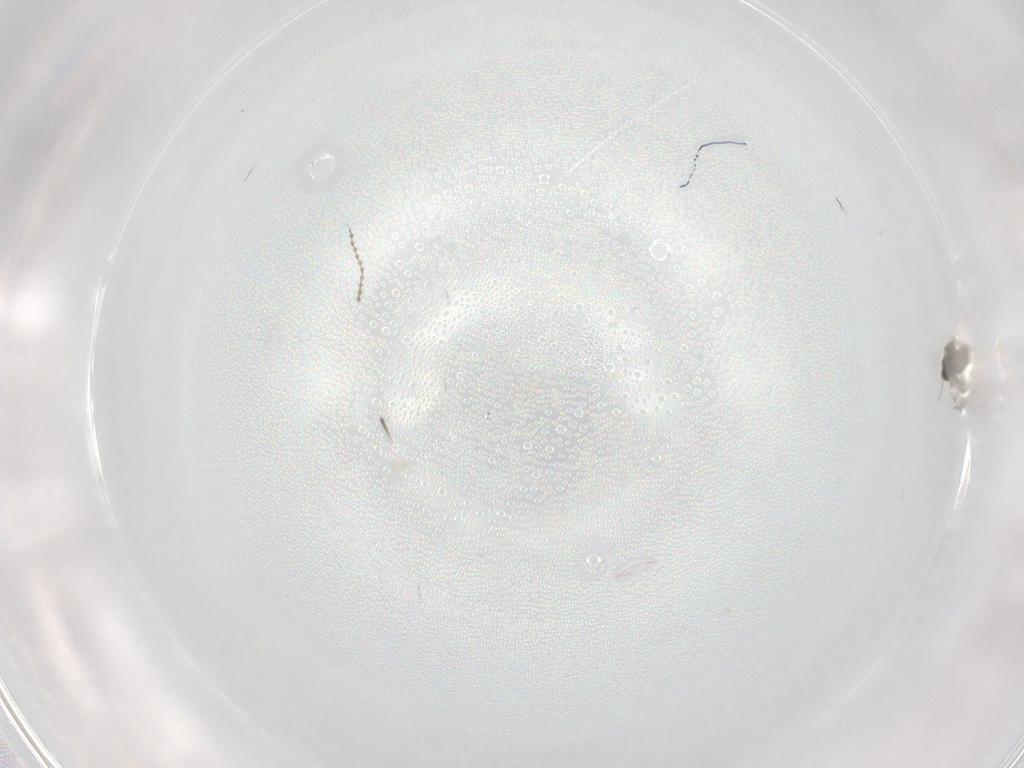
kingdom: Animalia
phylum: Arthropoda
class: Insecta
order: Diptera
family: Cecidomyiidae
